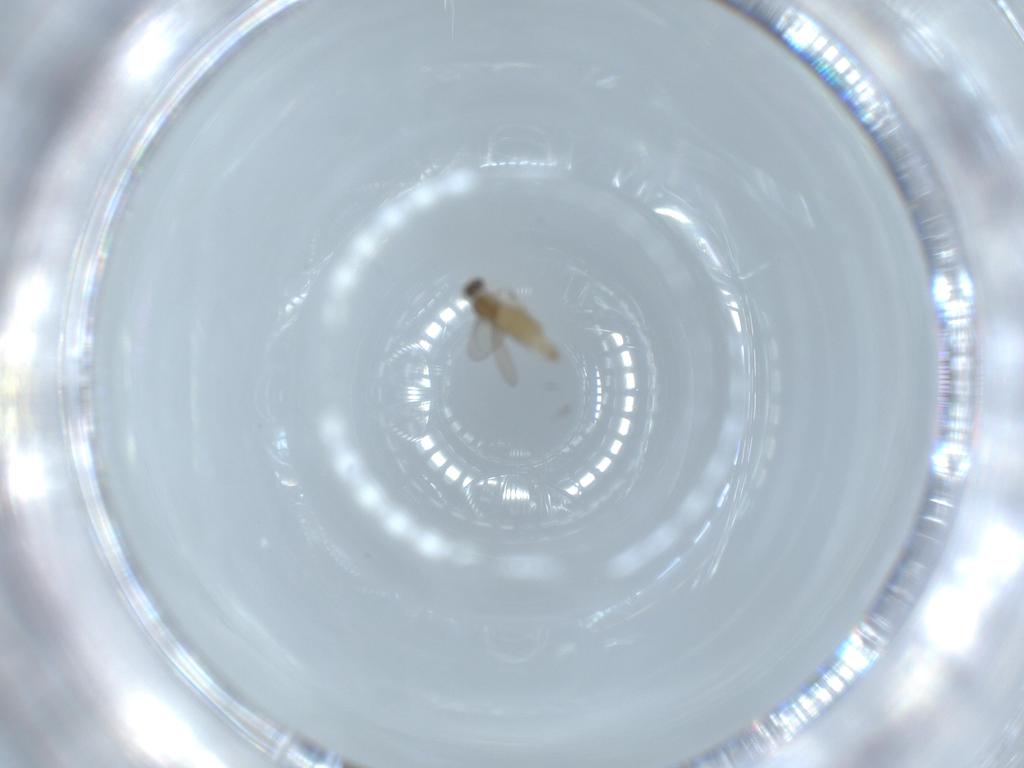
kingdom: Animalia
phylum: Arthropoda
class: Insecta
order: Diptera
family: Cecidomyiidae
